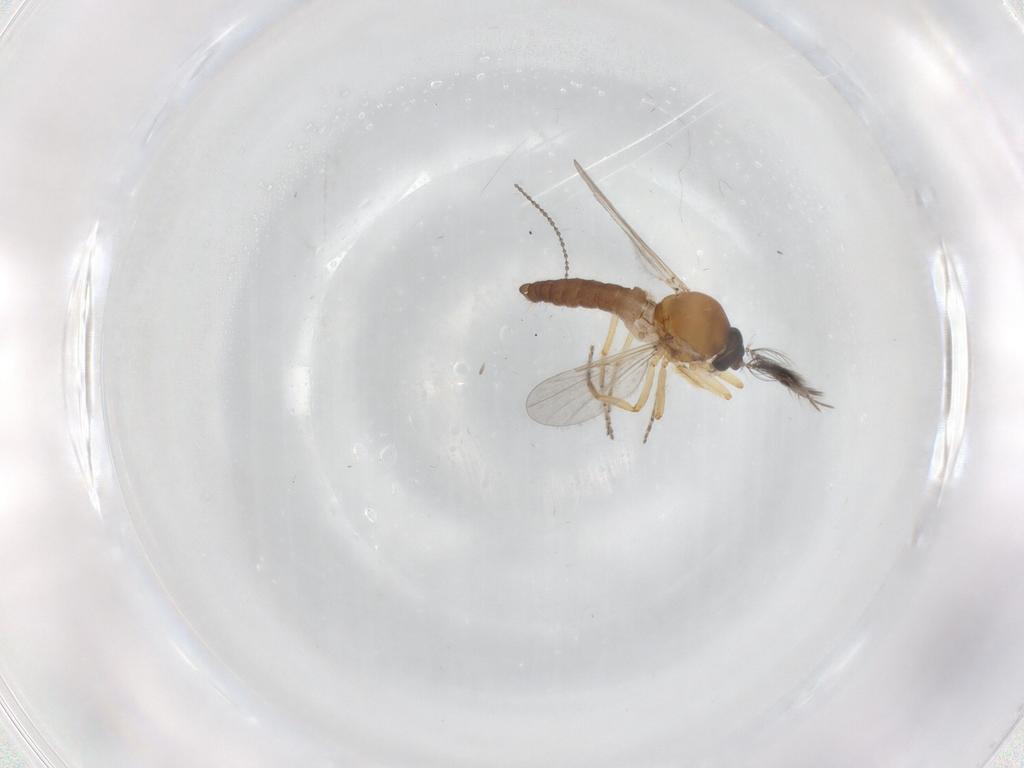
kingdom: Animalia
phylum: Arthropoda
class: Insecta
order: Diptera
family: Ceratopogonidae
